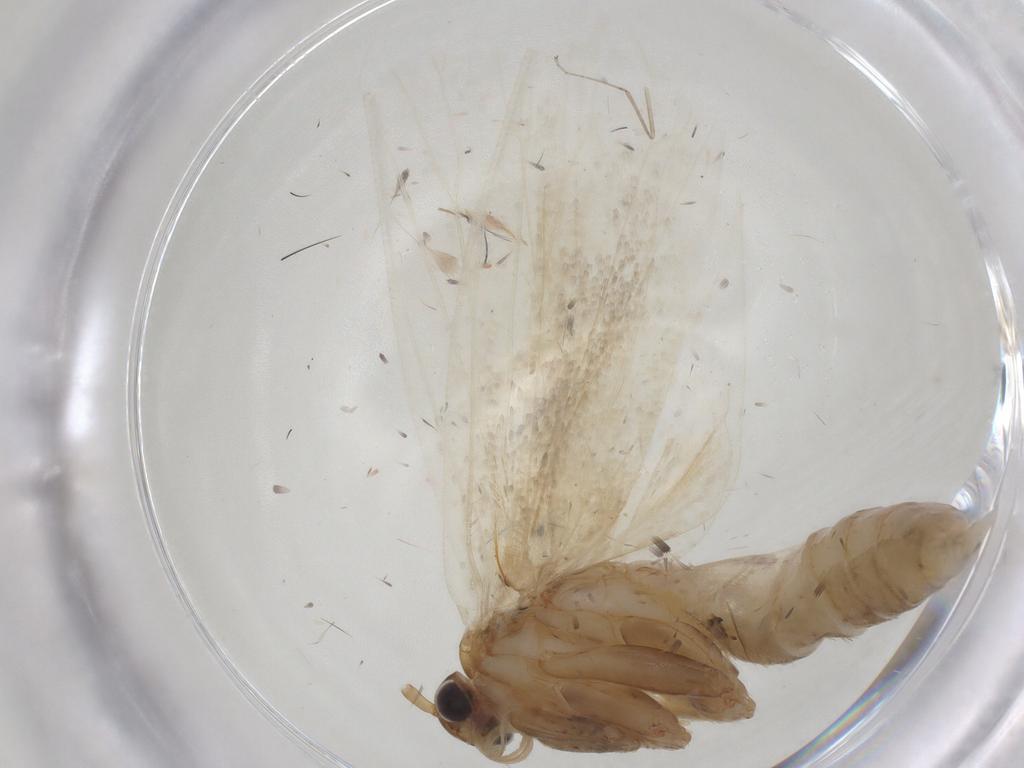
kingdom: Animalia
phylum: Arthropoda
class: Insecta
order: Lepidoptera
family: Depressariidae
